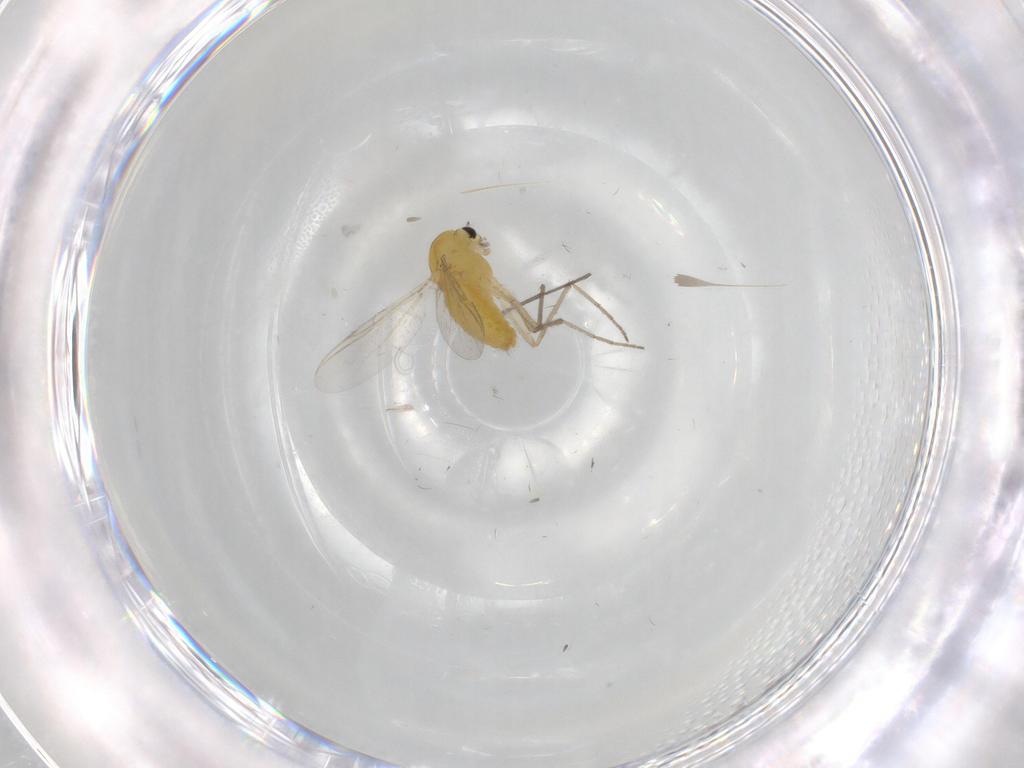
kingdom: Animalia
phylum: Arthropoda
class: Insecta
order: Diptera
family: Chironomidae
